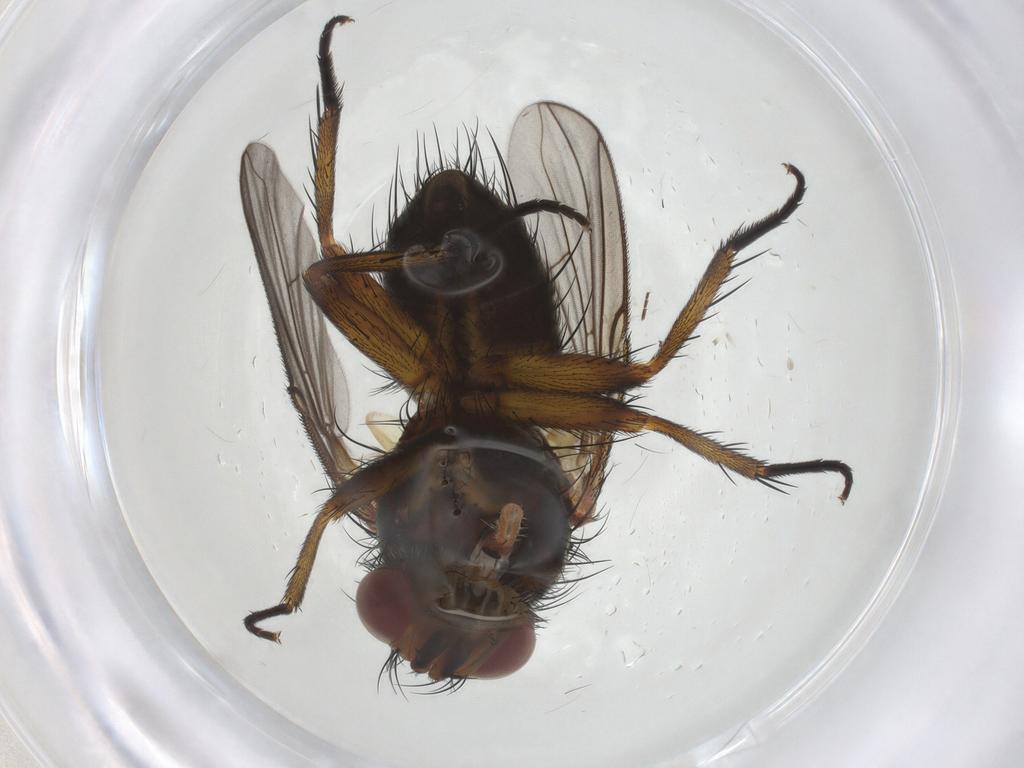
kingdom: Animalia
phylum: Arthropoda
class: Insecta
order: Diptera
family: Tachinidae
